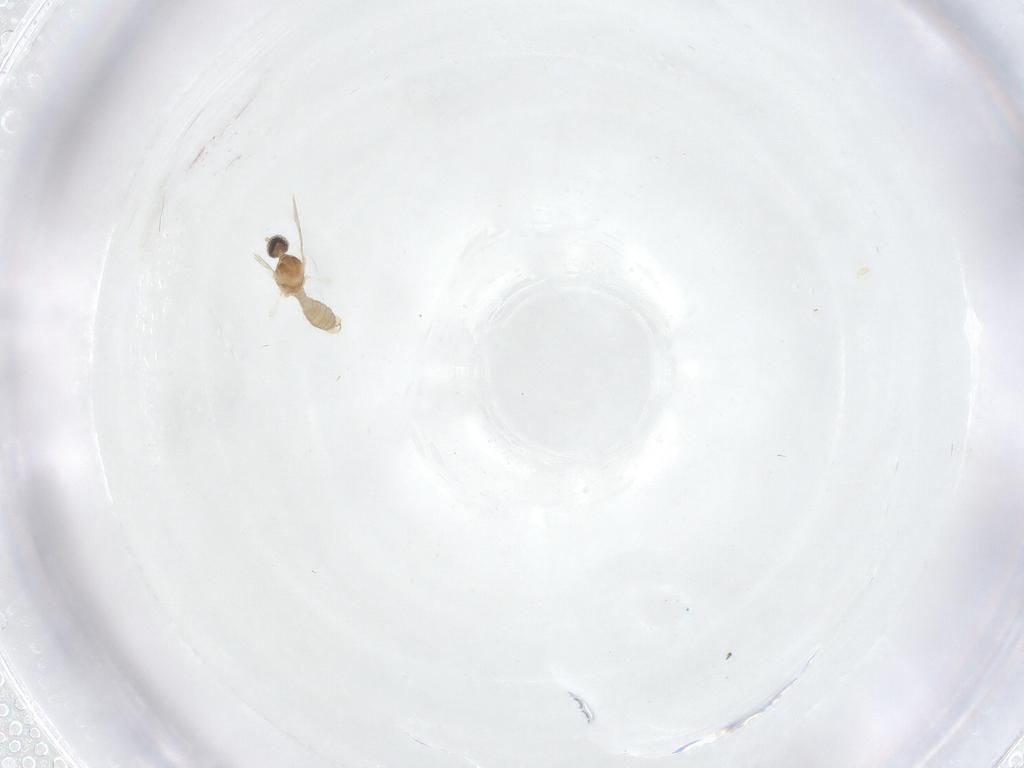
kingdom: Animalia
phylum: Arthropoda
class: Insecta
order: Diptera
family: Cecidomyiidae
